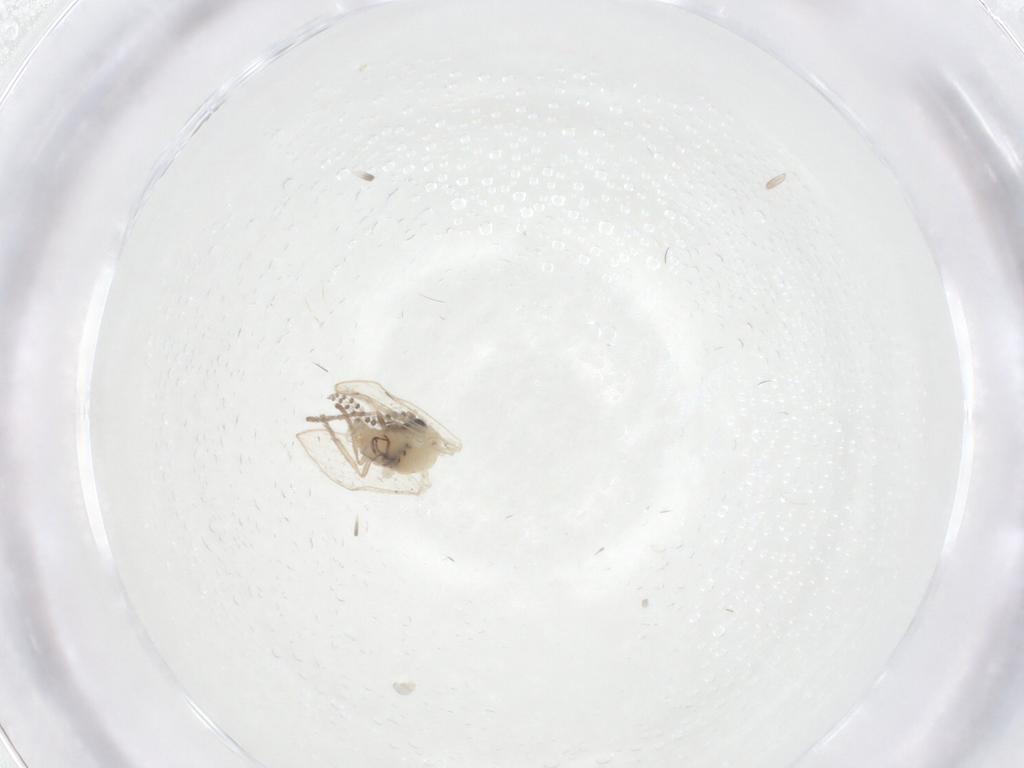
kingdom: Animalia
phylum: Arthropoda
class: Insecta
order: Diptera
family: Psychodidae
